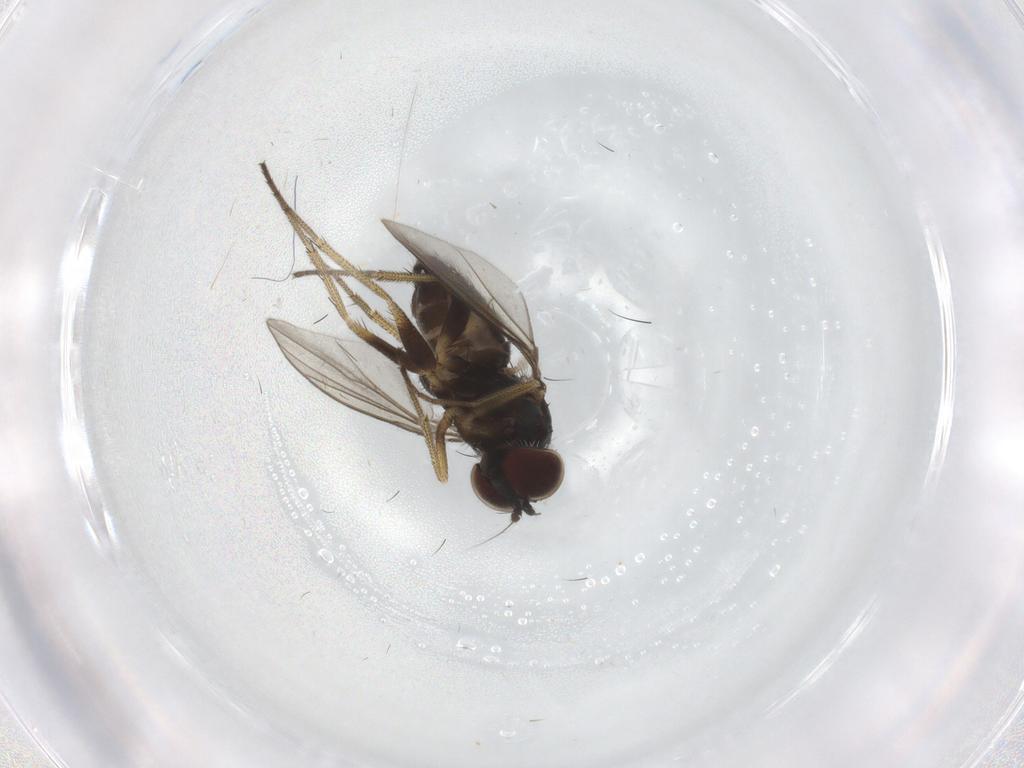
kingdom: Animalia
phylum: Arthropoda
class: Insecta
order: Diptera
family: Dolichopodidae
